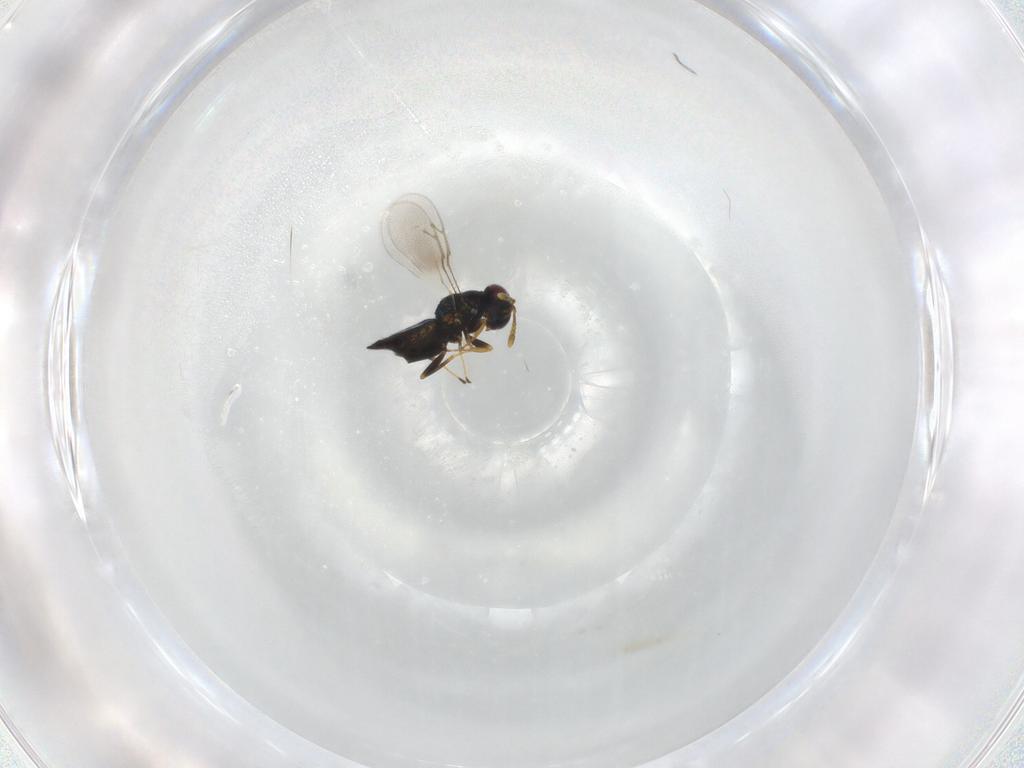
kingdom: Animalia
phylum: Arthropoda
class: Insecta
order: Hymenoptera
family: Pteromalidae
